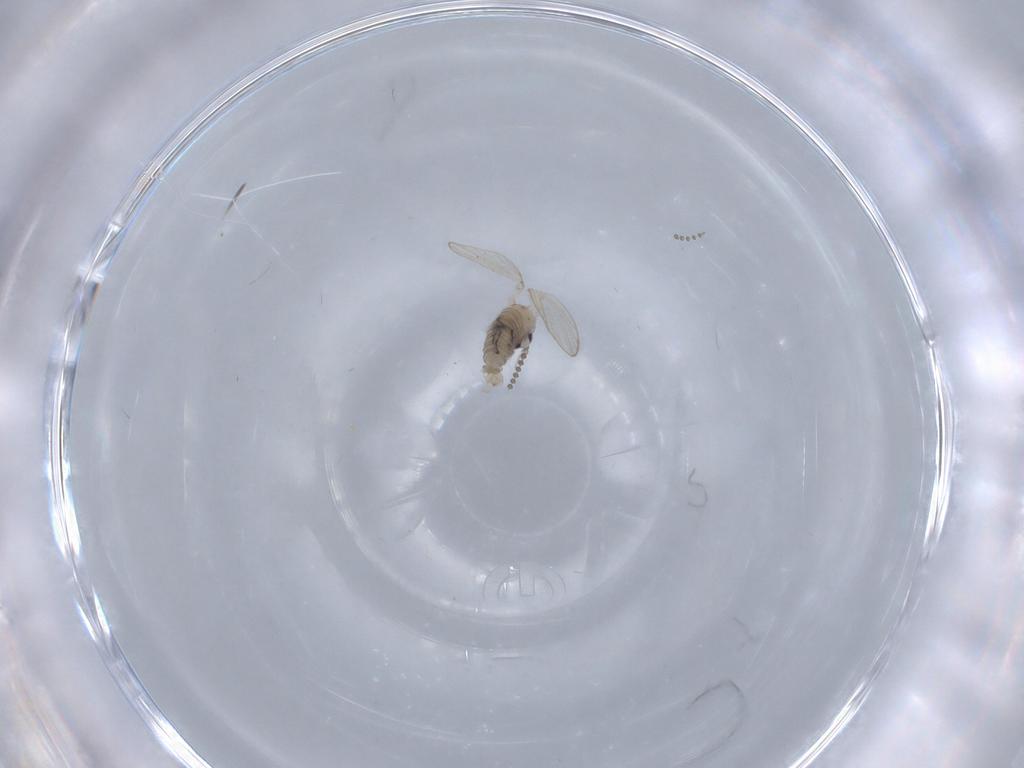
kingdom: Animalia
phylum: Arthropoda
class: Insecta
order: Diptera
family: Psychodidae
